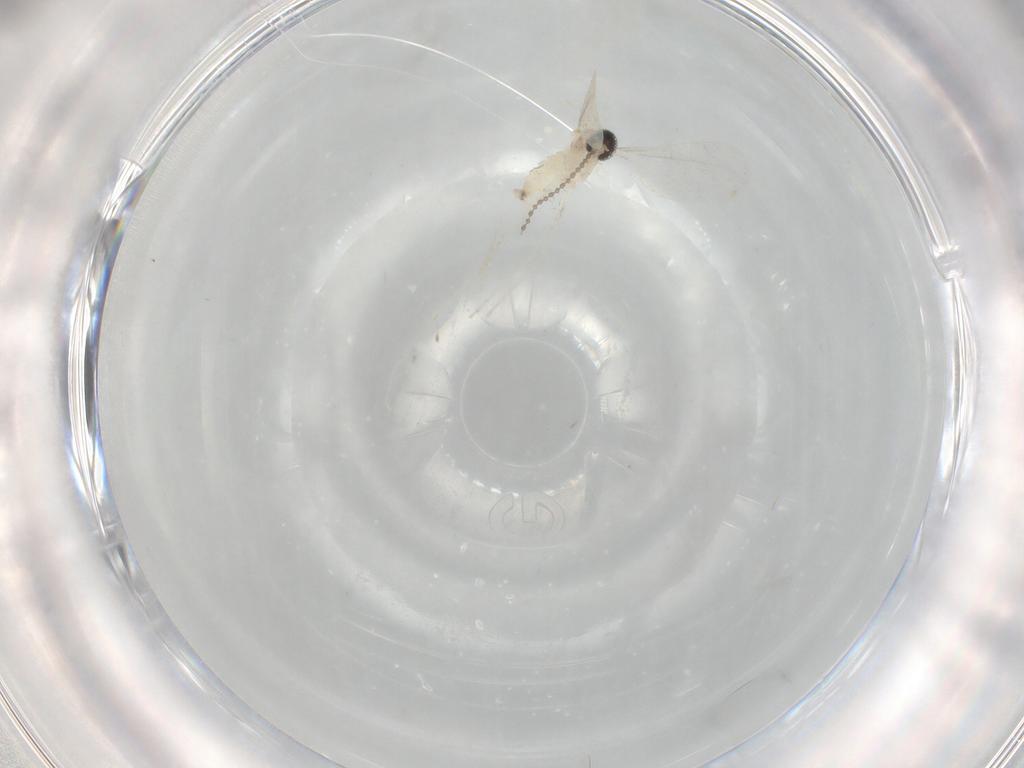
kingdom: Animalia
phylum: Arthropoda
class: Insecta
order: Diptera
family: Cecidomyiidae
